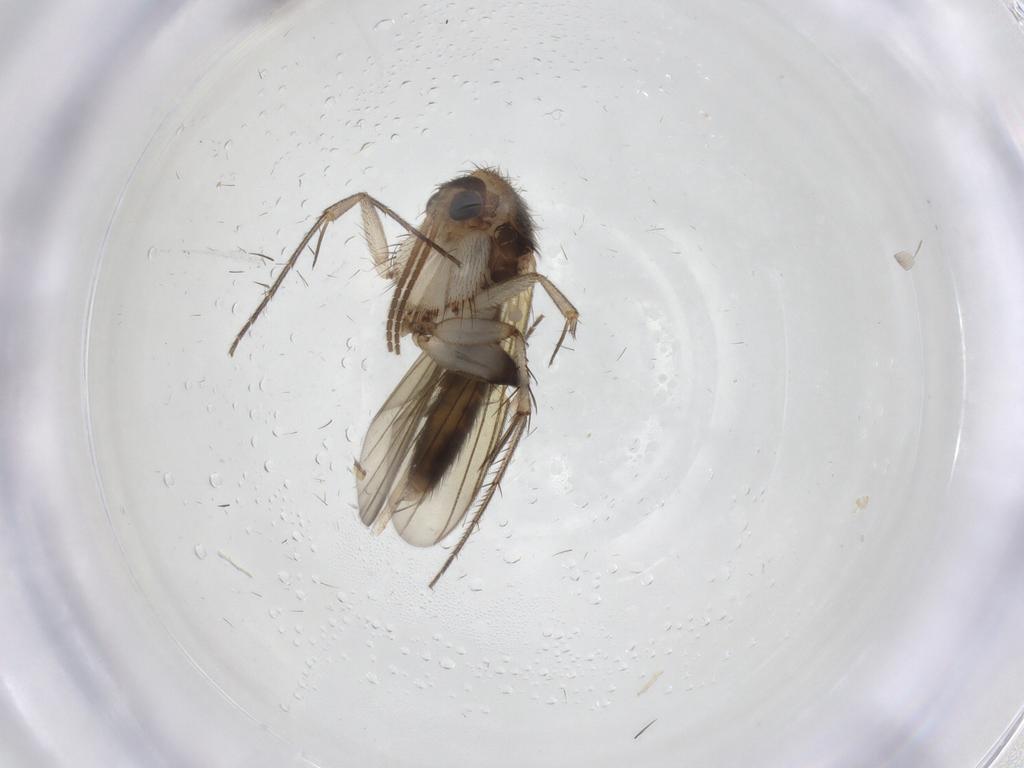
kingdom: Animalia
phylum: Arthropoda
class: Insecta
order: Diptera
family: Mycetophilidae
